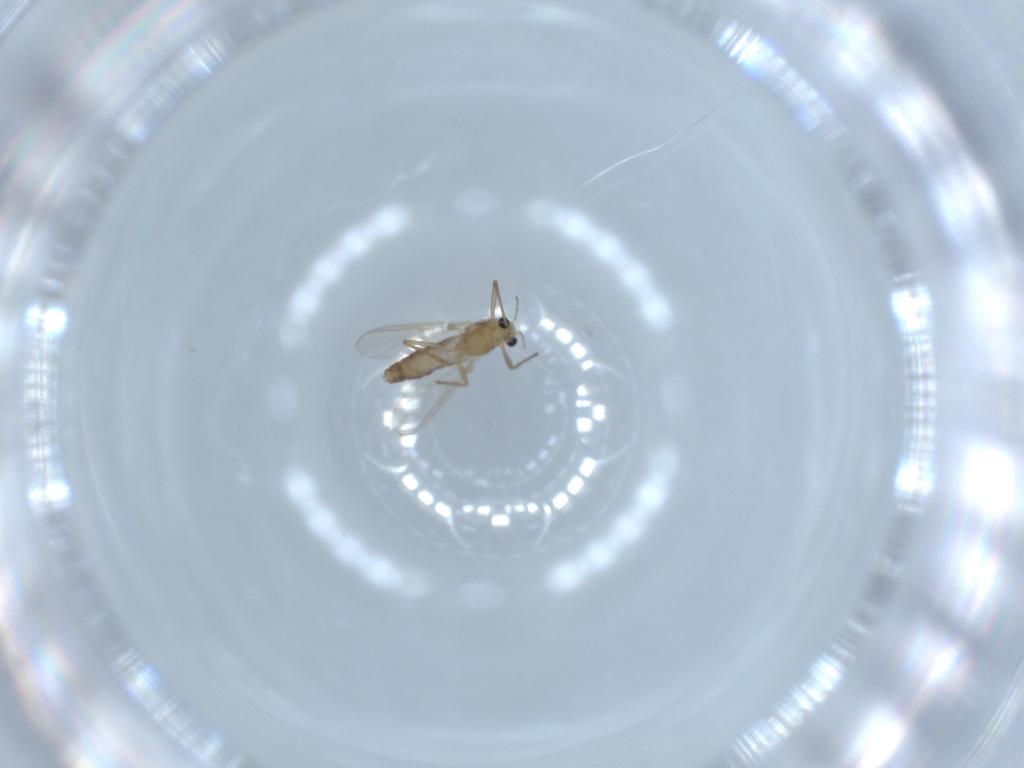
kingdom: Animalia
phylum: Arthropoda
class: Insecta
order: Diptera
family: Chironomidae
